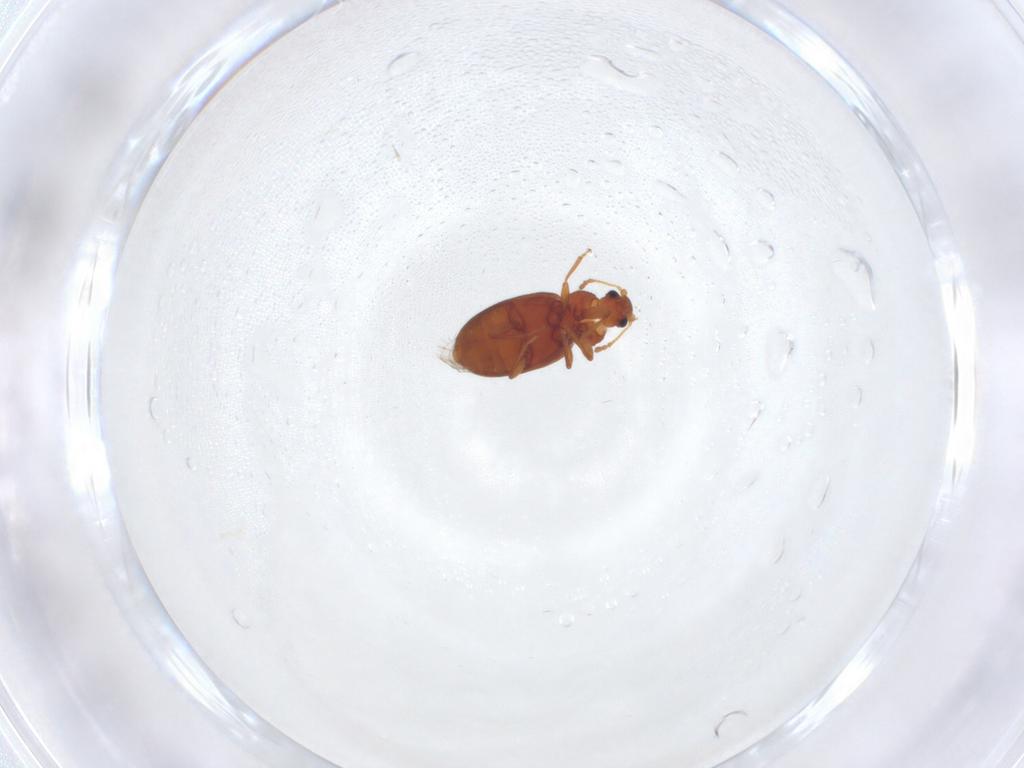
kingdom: Animalia
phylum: Arthropoda
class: Insecta
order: Coleoptera
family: Latridiidae
